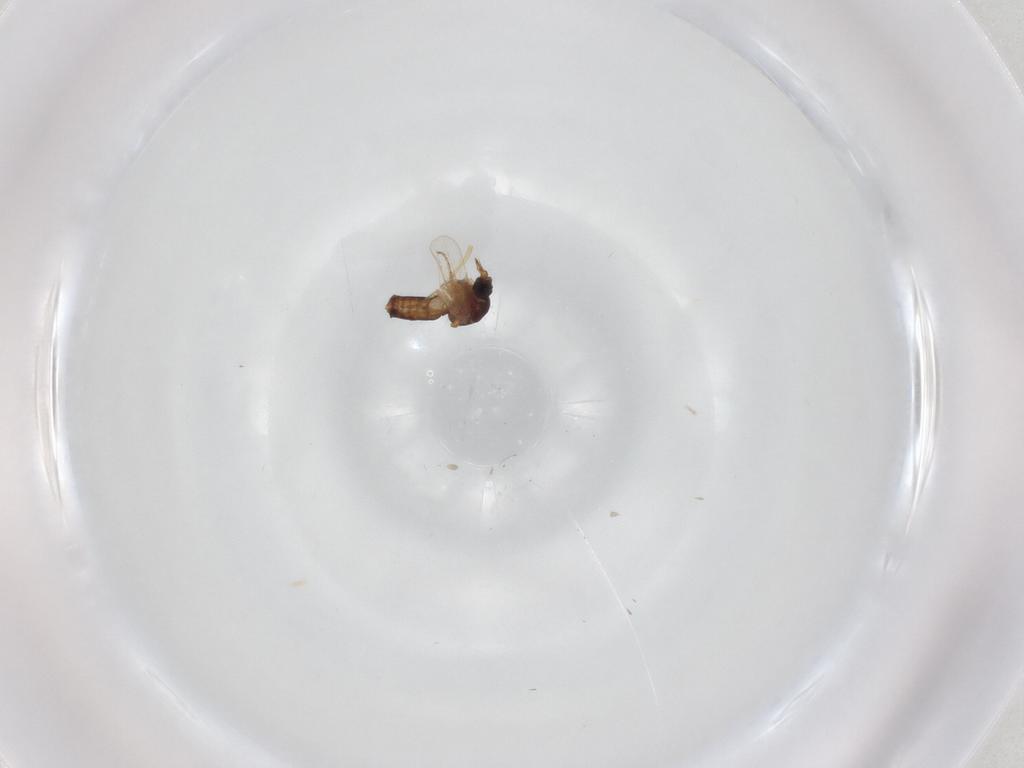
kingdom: Animalia
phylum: Arthropoda
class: Insecta
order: Diptera
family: Ceratopogonidae
